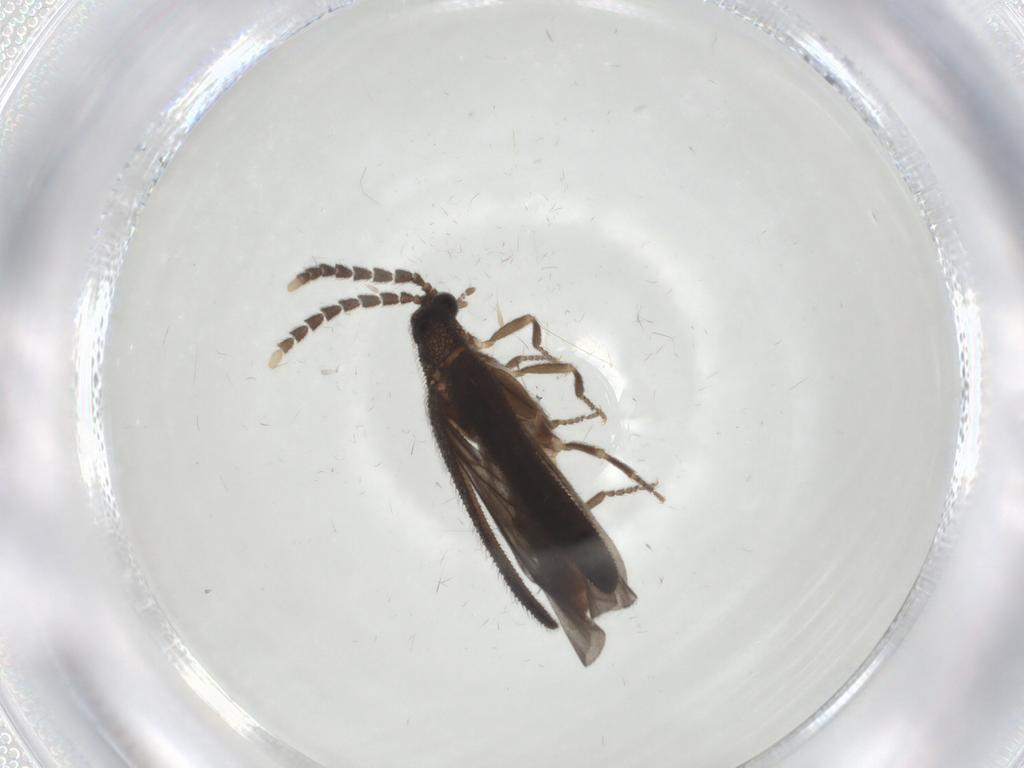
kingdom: Animalia
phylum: Arthropoda
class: Insecta
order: Coleoptera
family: Lycidae
